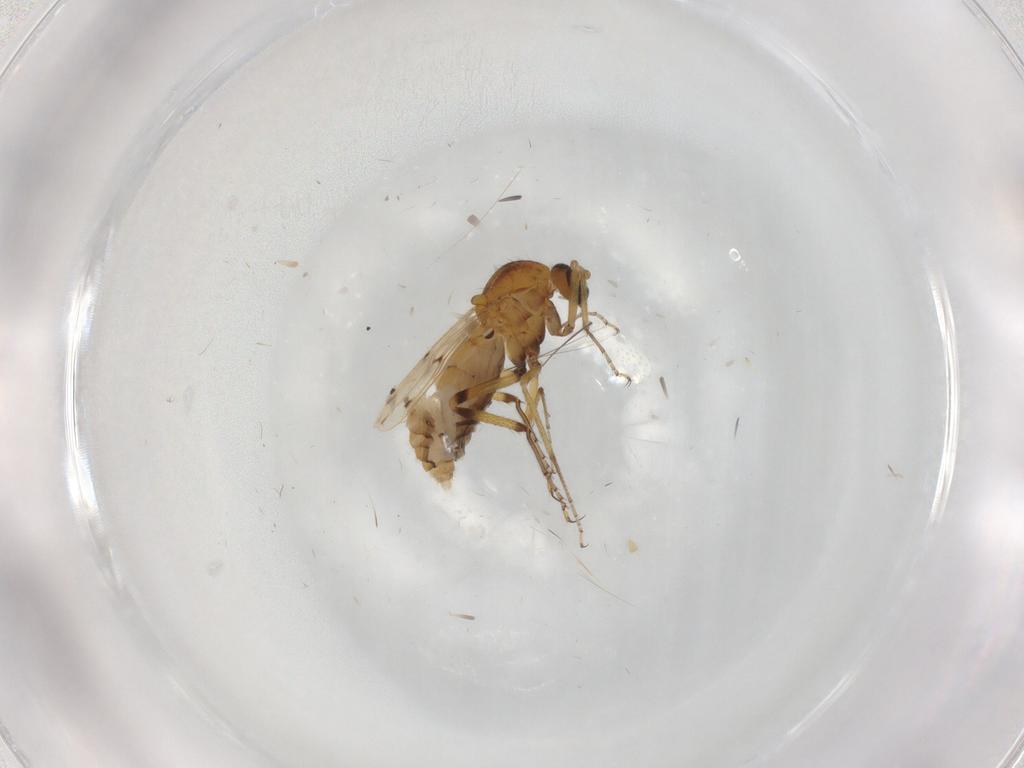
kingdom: Animalia
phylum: Arthropoda
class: Insecta
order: Diptera
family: Ceratopogonidae
